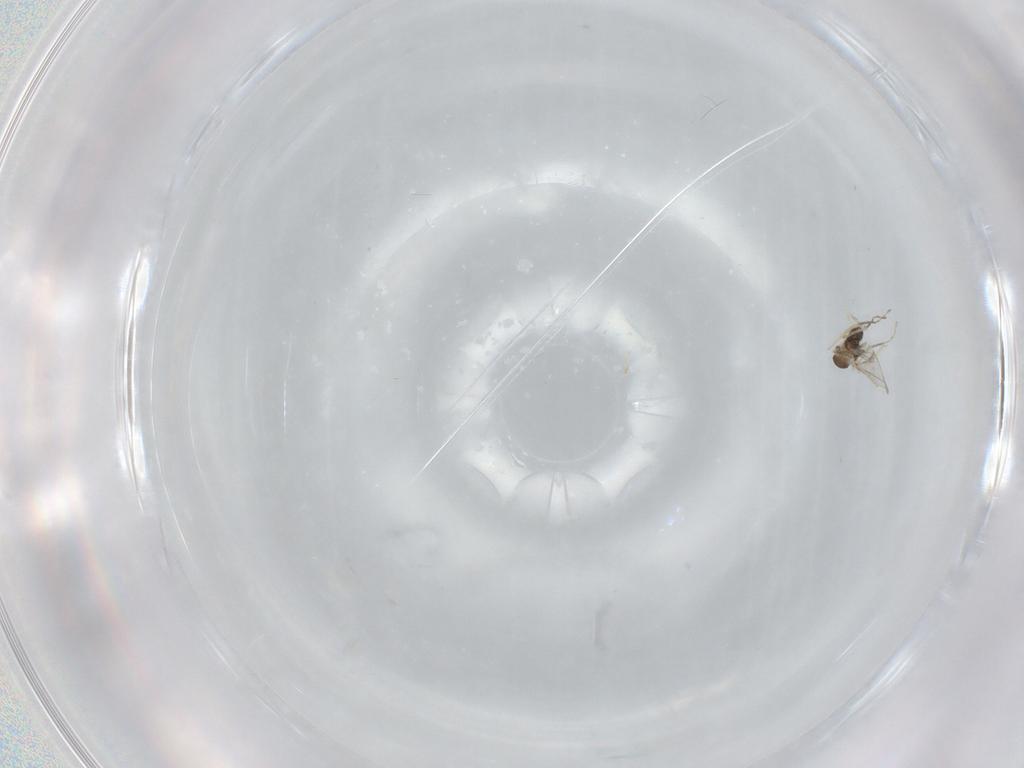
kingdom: Animalia
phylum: Arthropoda
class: Insecta
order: Diptera
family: Cecidomyiidae
